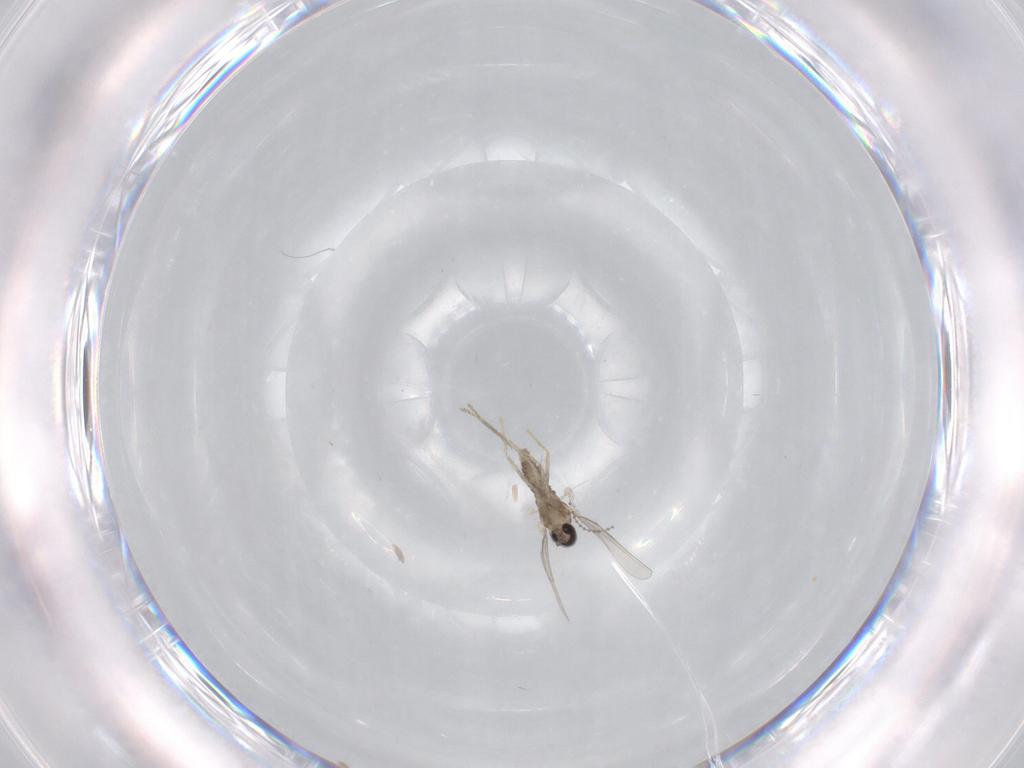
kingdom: Animalia
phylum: Arthropoda
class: Insecta
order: Diptera
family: Cecidomyiidae
